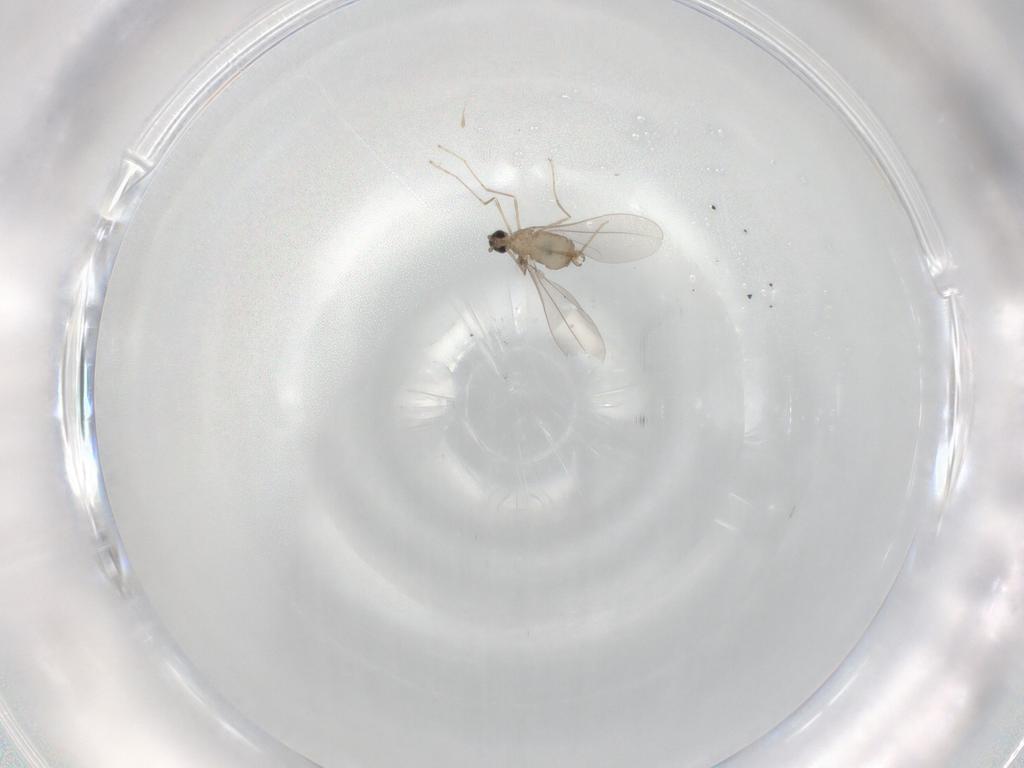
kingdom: Animalia
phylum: Arthropoda
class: Insecta
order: Diptera
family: Cecidomyiidae
